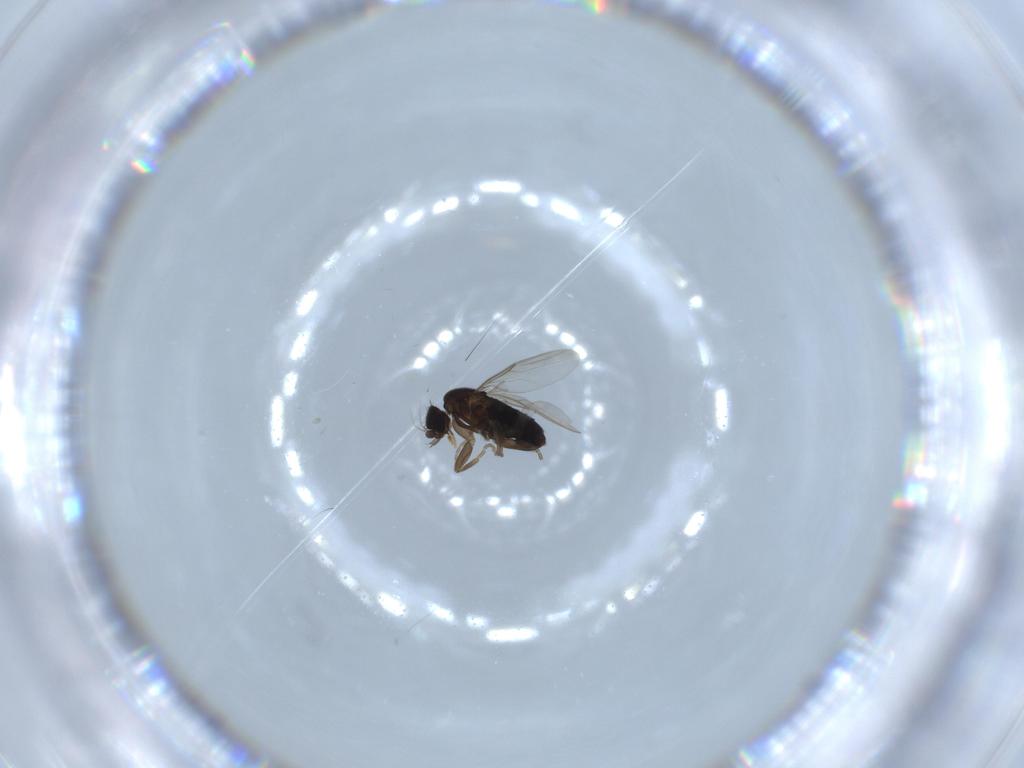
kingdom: Animalia
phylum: Arthropoda
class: Insecta
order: Diptera
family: Phoridae
